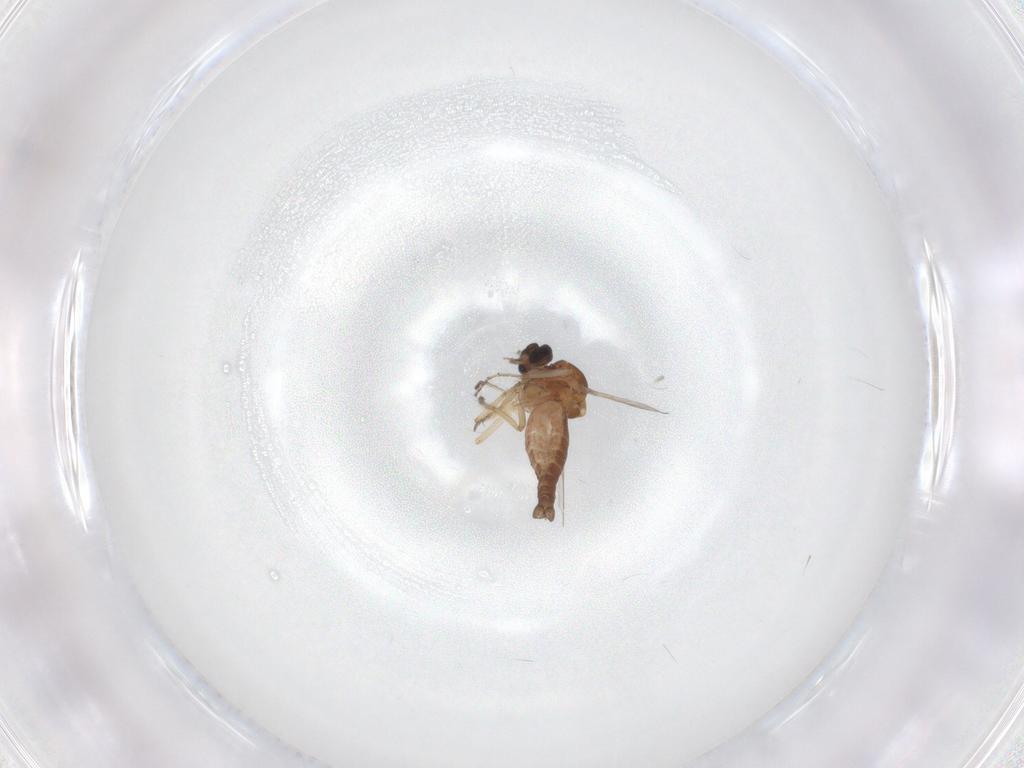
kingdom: Animalia
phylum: Arthropoda
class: Insecta
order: Diptera
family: Ceratopogonidae
